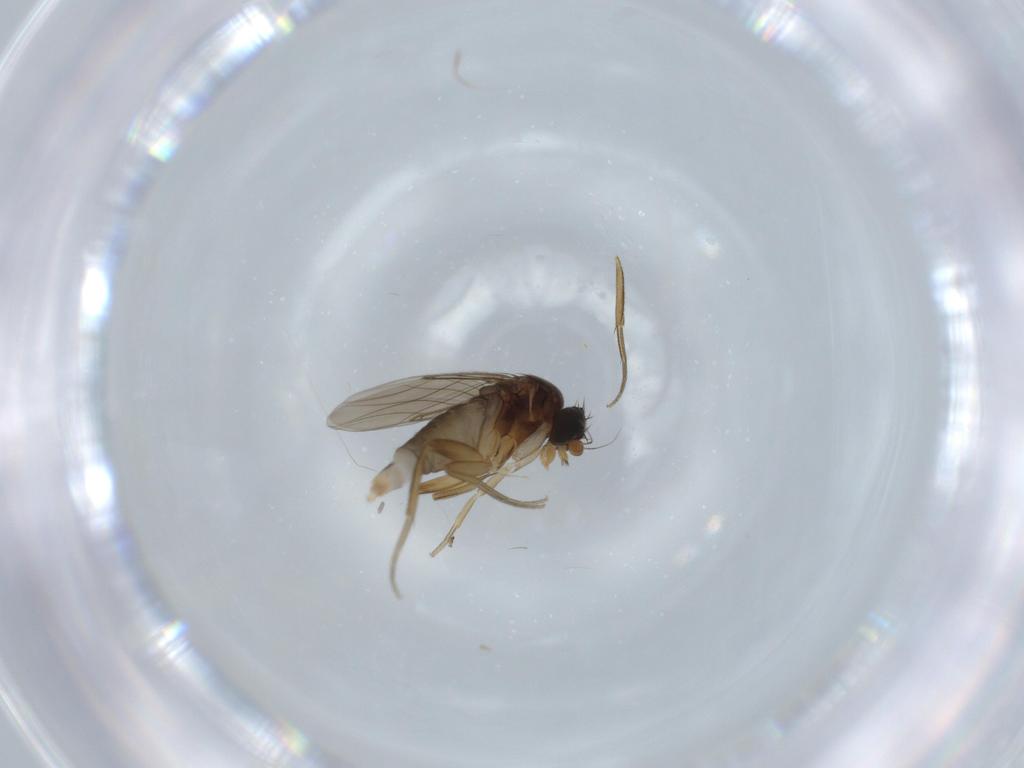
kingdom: Animalia
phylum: Arthropoda
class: Insecta
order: Diptera
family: Phoridae
